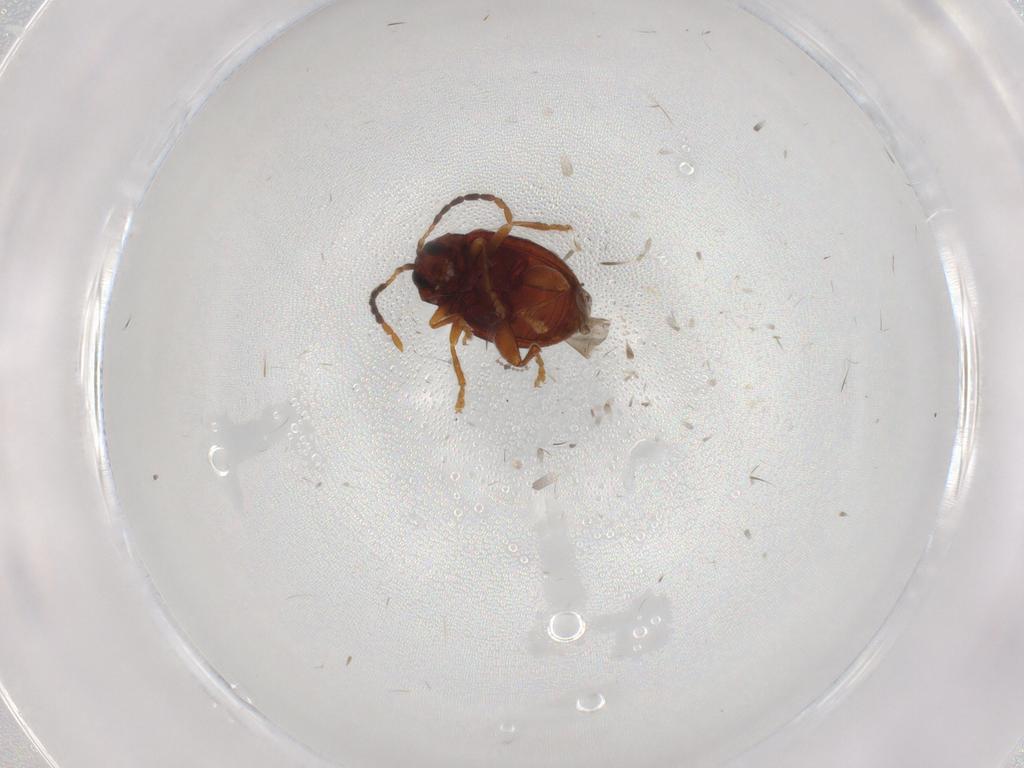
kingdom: Animalia
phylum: Arthropoda
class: Insecta
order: Coleoptera
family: Chrysomelidae
